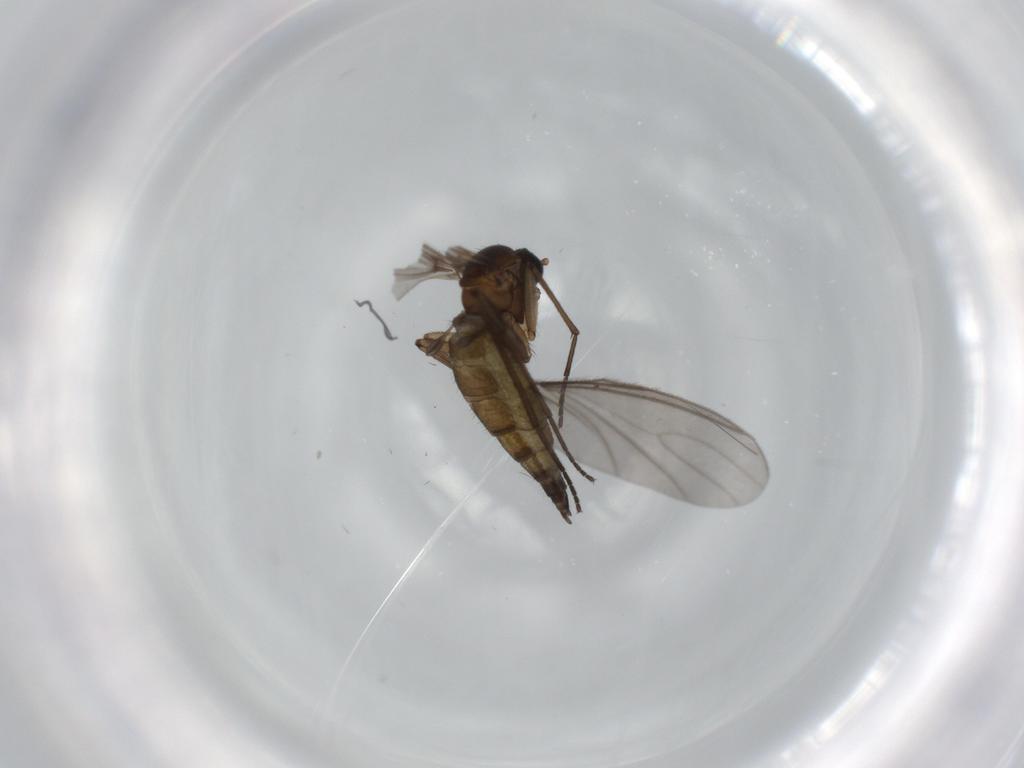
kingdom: Animalia
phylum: Arthropoda
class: Insecta
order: Diptera
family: Sciaridae
